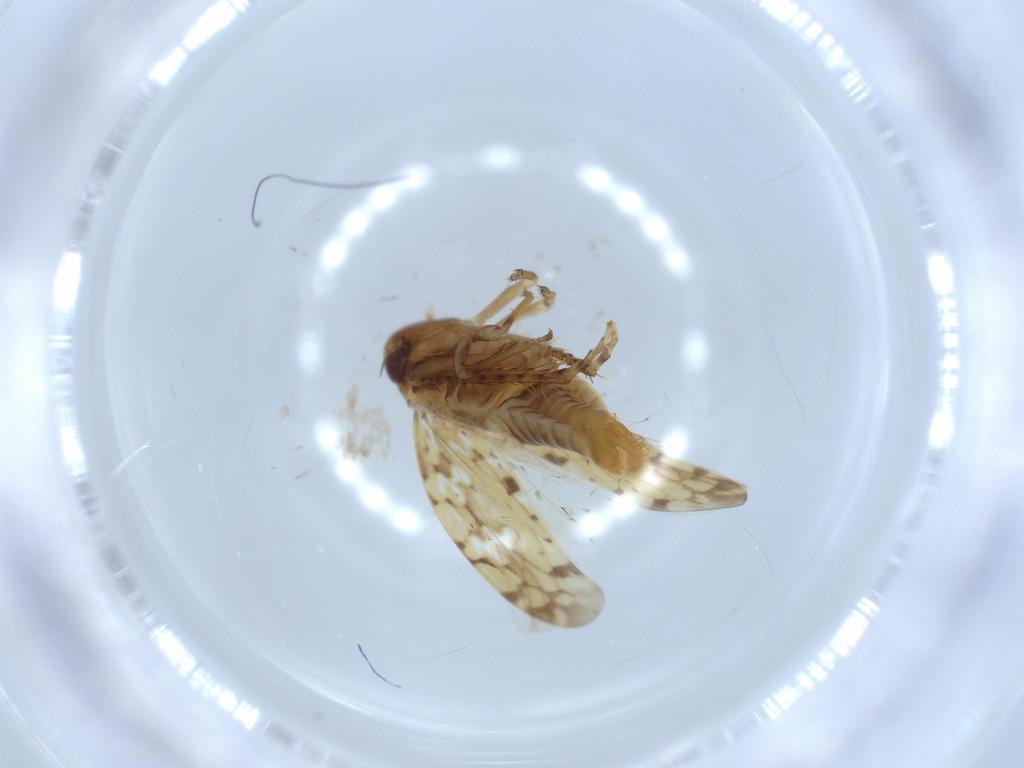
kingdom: Animalia
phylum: Arthropoda
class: Insecta
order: Hemiptera
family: Cicadellidae
